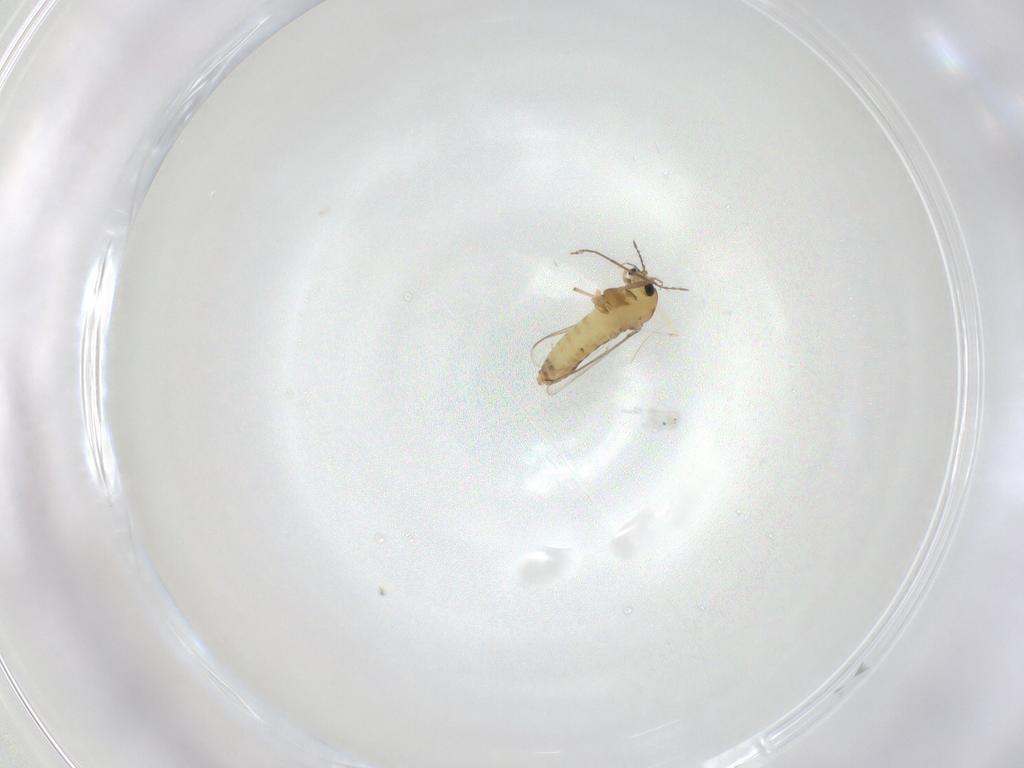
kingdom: Animalia
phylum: Arthropoda
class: Insecta
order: Diptera
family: Chironomidae
